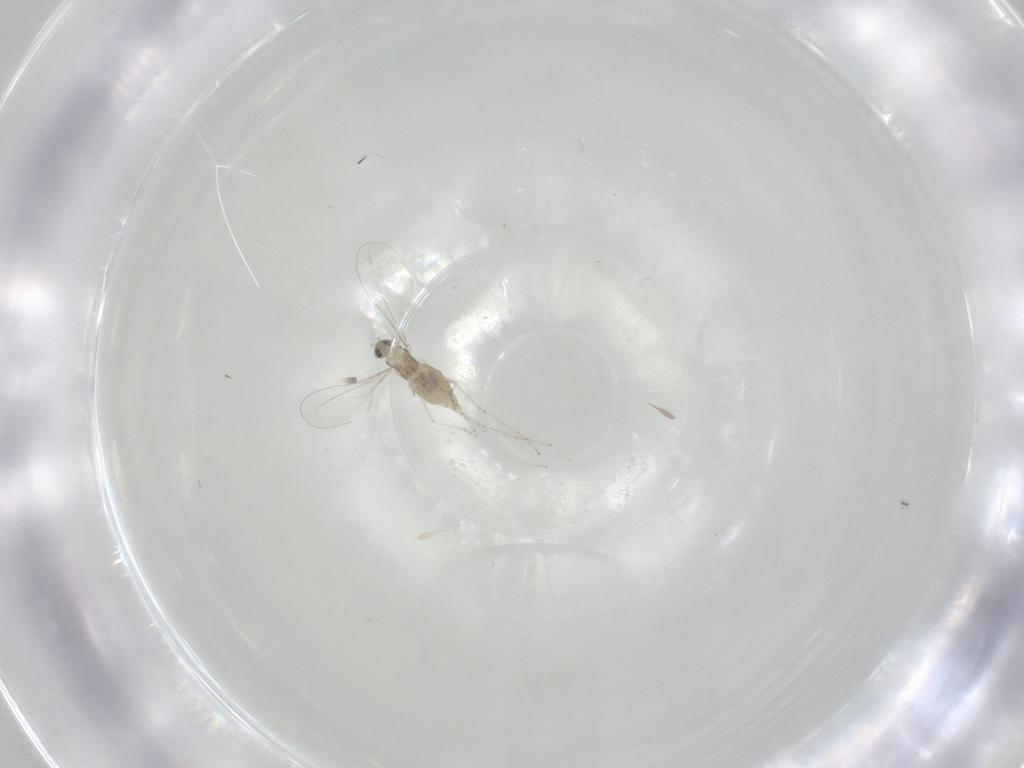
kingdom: Animalia
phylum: Arthropoda
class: Insecta
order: Diptera
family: Cecidomyiidae
